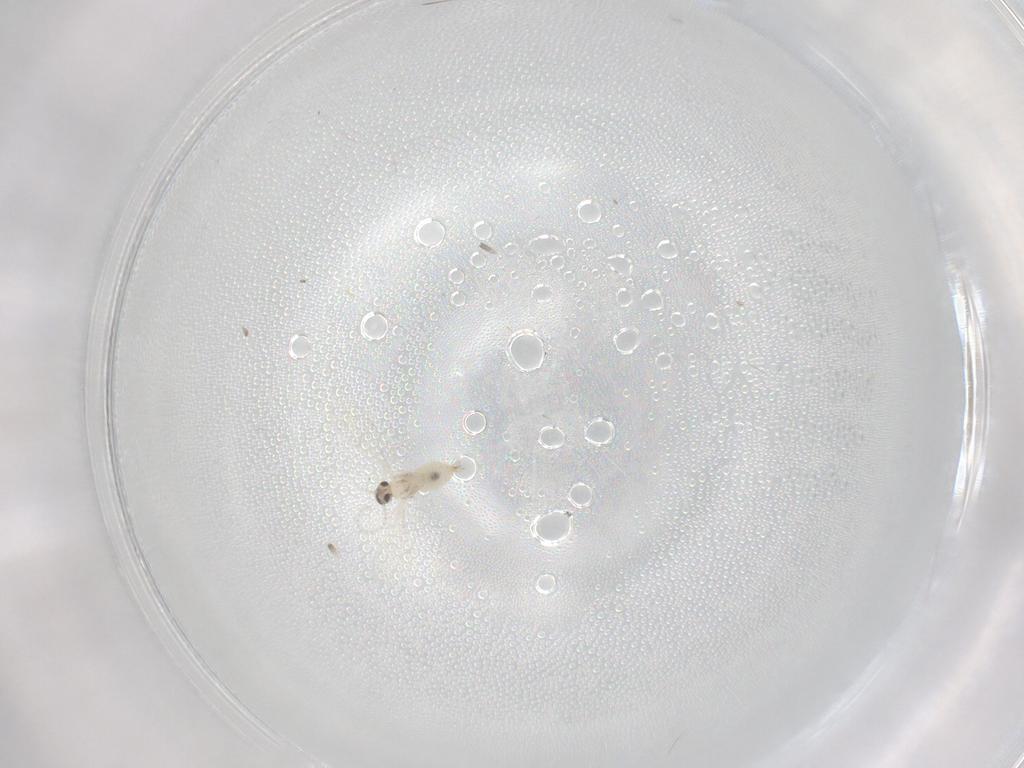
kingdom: Animalia
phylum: Arthropoda
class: Insecta
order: Diptera
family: Cecidomyiidae
